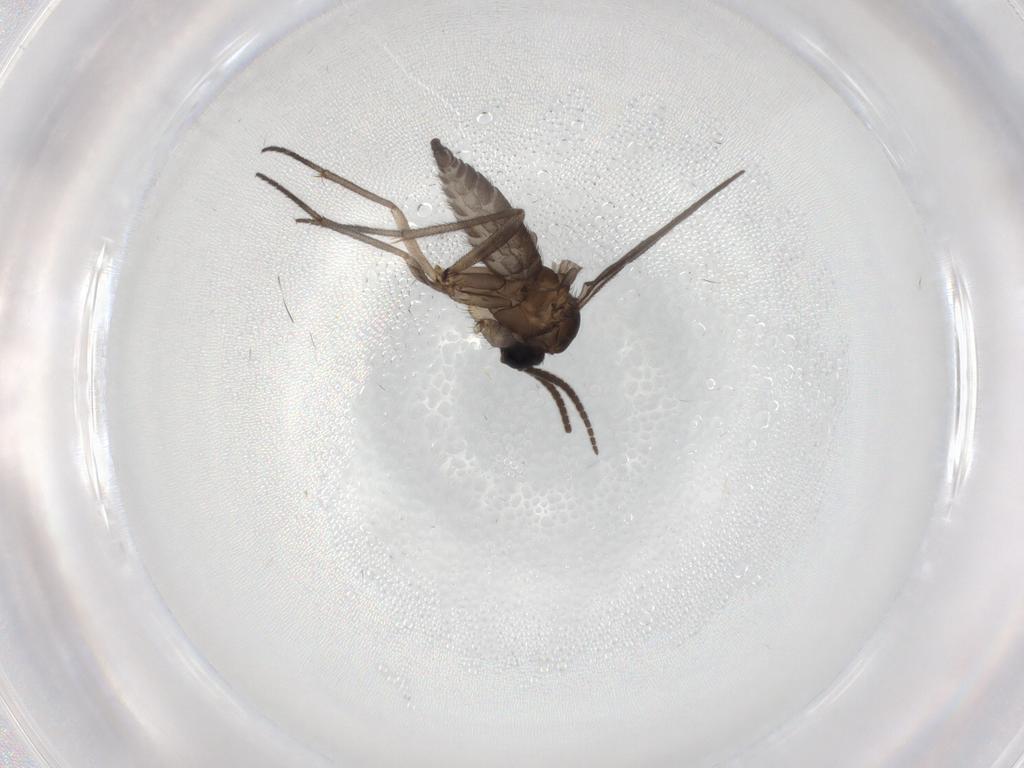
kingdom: Animalia
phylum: Arthropoda
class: Insecta
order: Diptera
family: Sciaridae
